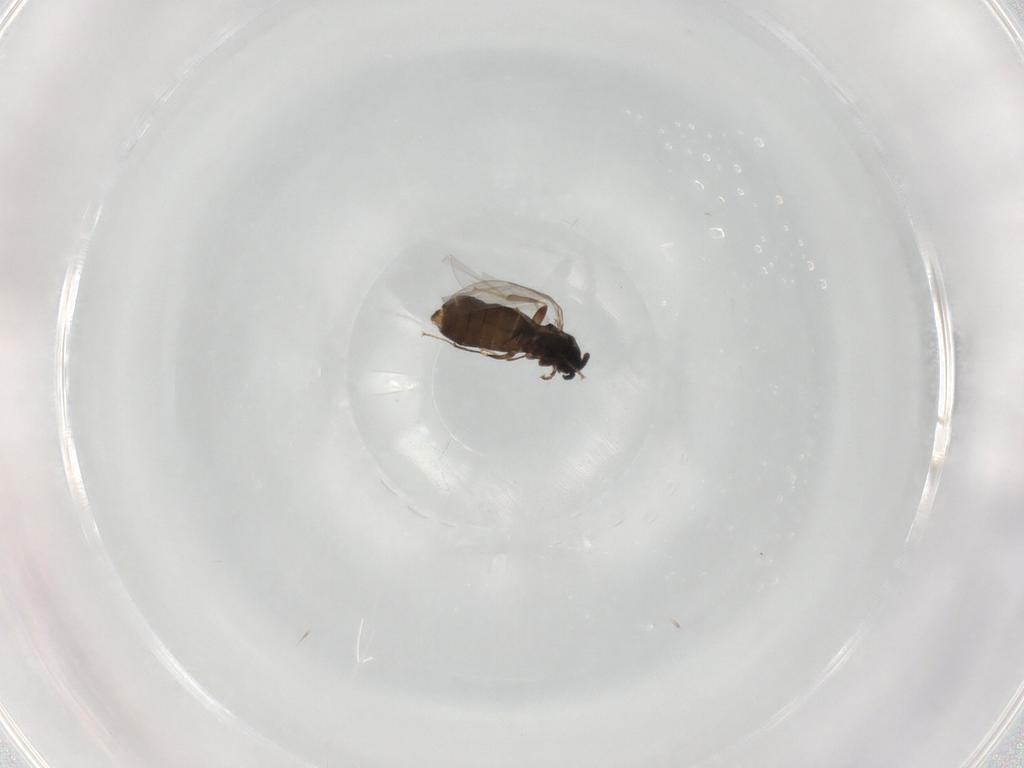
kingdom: Animalia
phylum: Arthropoda
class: Insecta
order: Diptera
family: Scatopsidae
